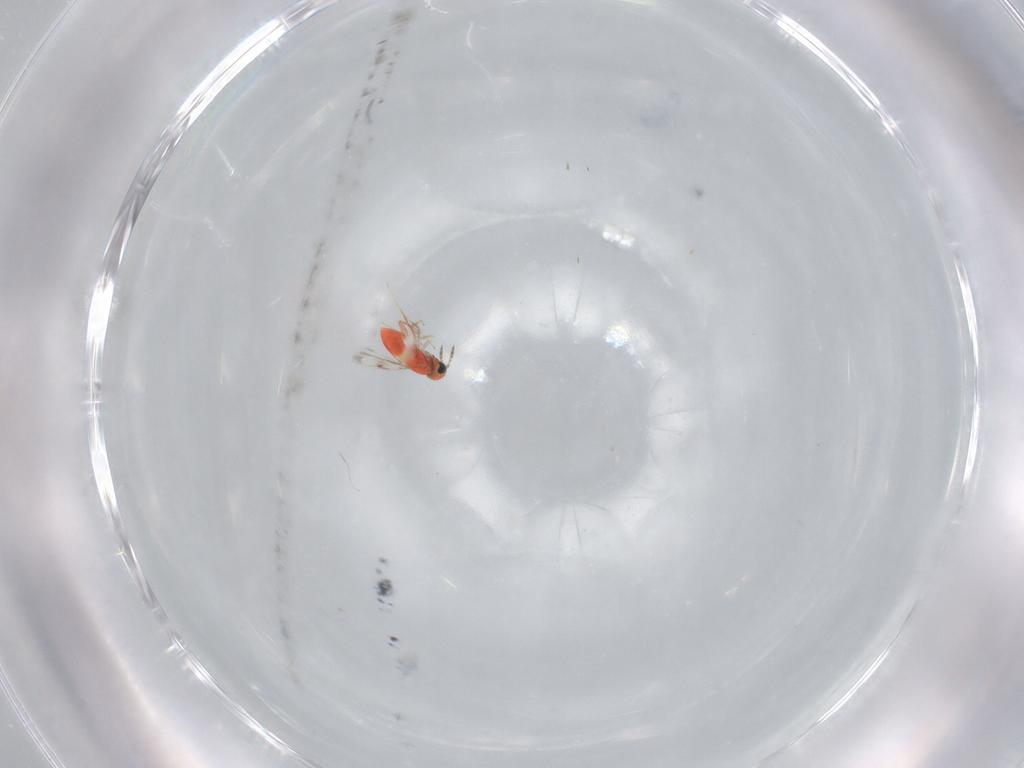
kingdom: Animalia
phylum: Arthropoda
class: Insecta
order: Hymenoptera
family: Trichogrammatidae
